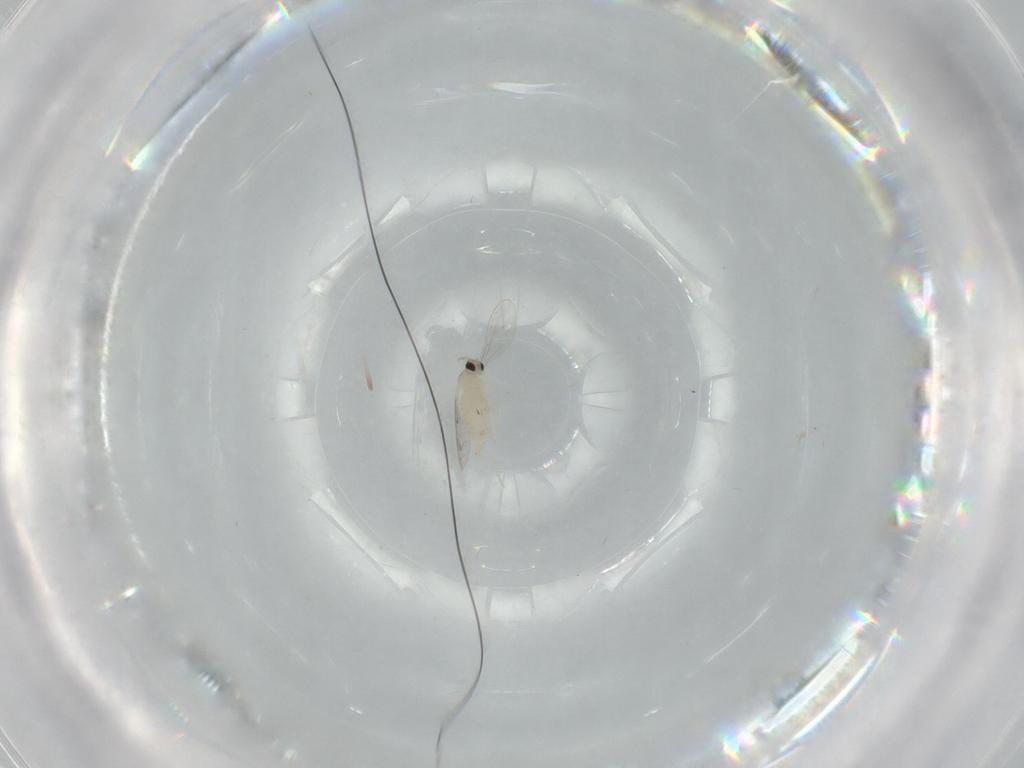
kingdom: Animalia
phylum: Arthropoda
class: Insecta
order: Diptera
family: Cecidomyiidae
